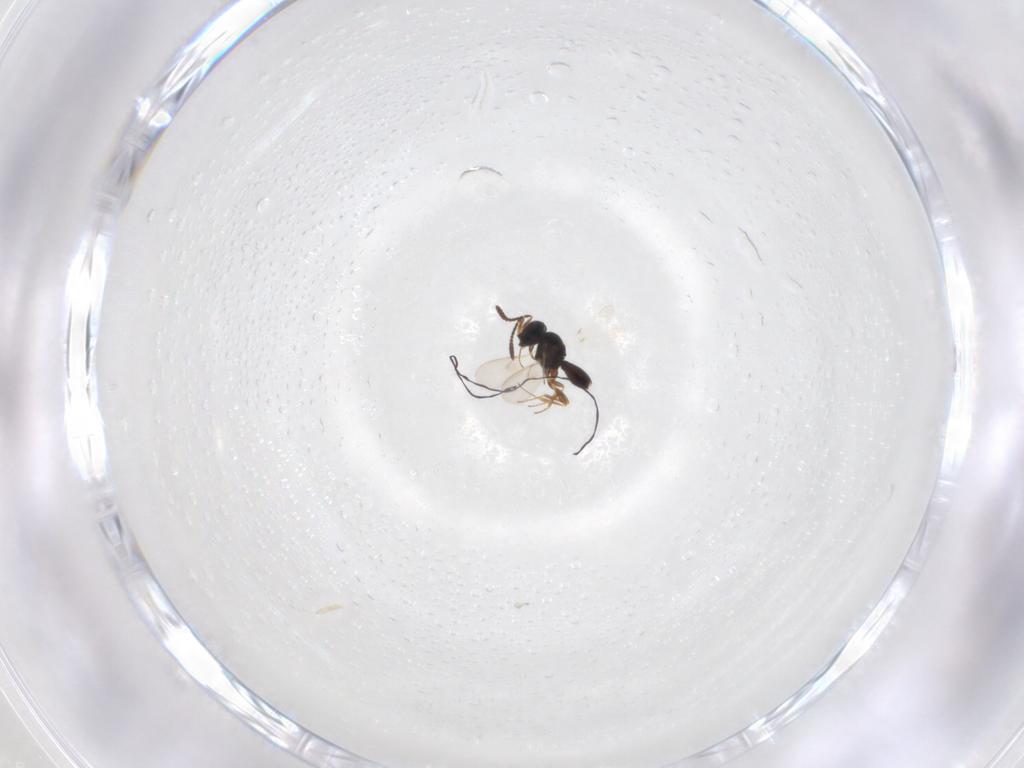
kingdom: Animalia
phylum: Arthropoda
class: Insecta
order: Hymenoptera
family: Scelionidae
